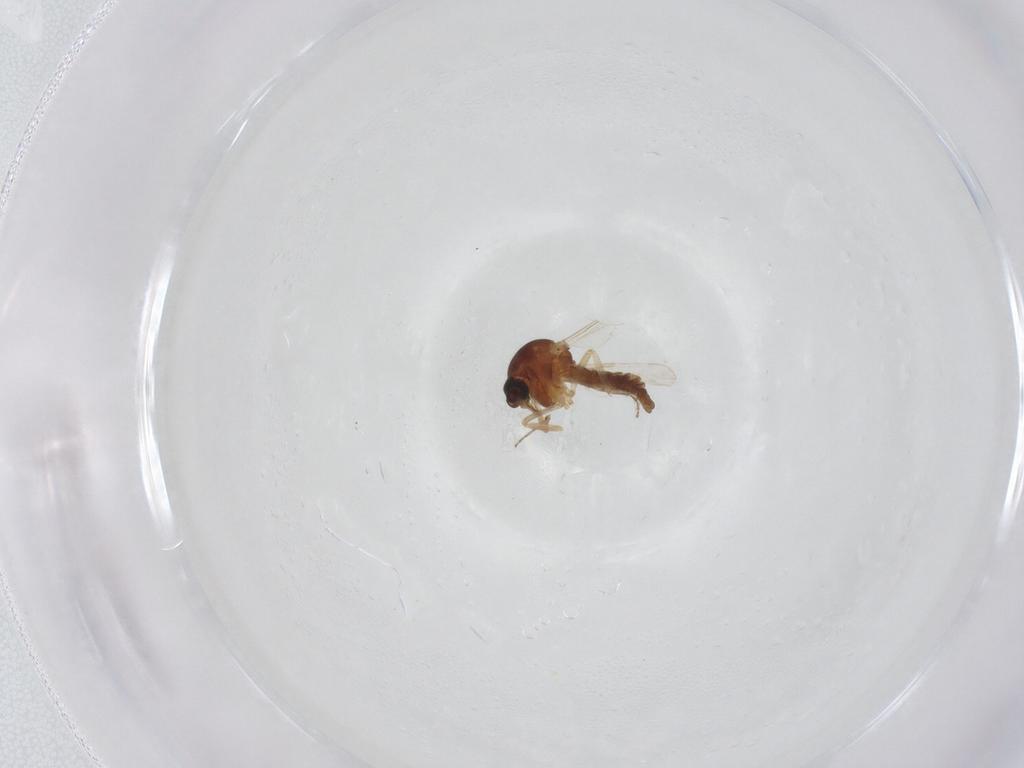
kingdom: Animalia
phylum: Arthropoda
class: Insecta
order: Diptera
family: Ceratopogonidae
